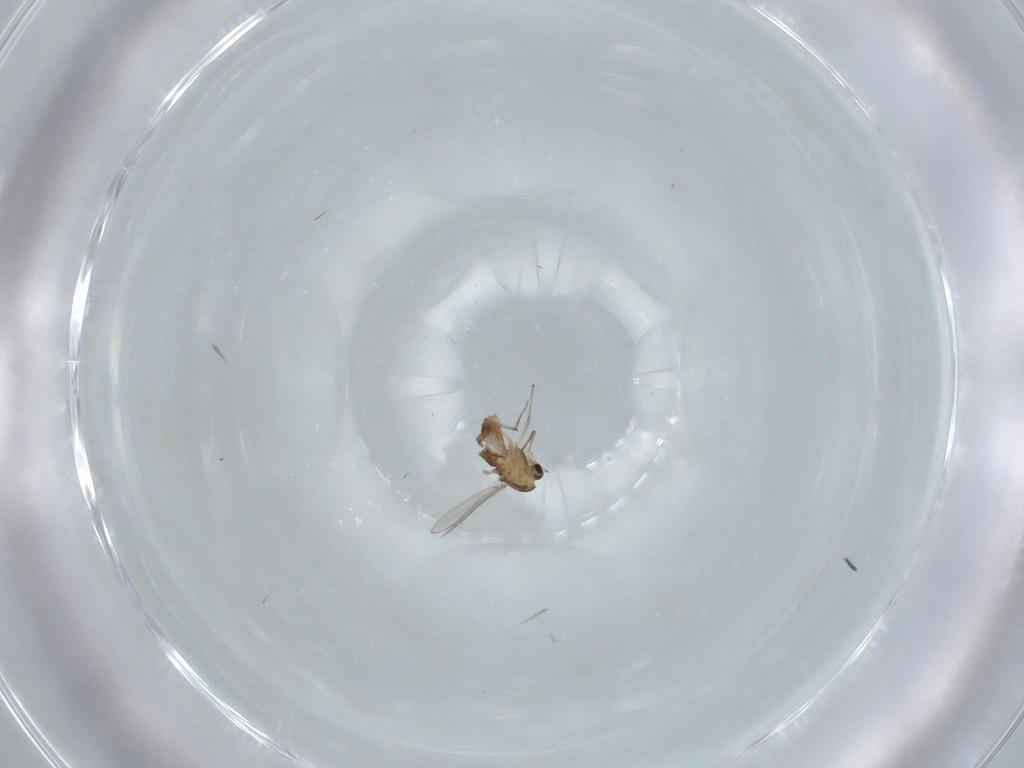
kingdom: Animalia
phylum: Arthropoda
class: Insecta
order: Diptera
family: Chironomidae
